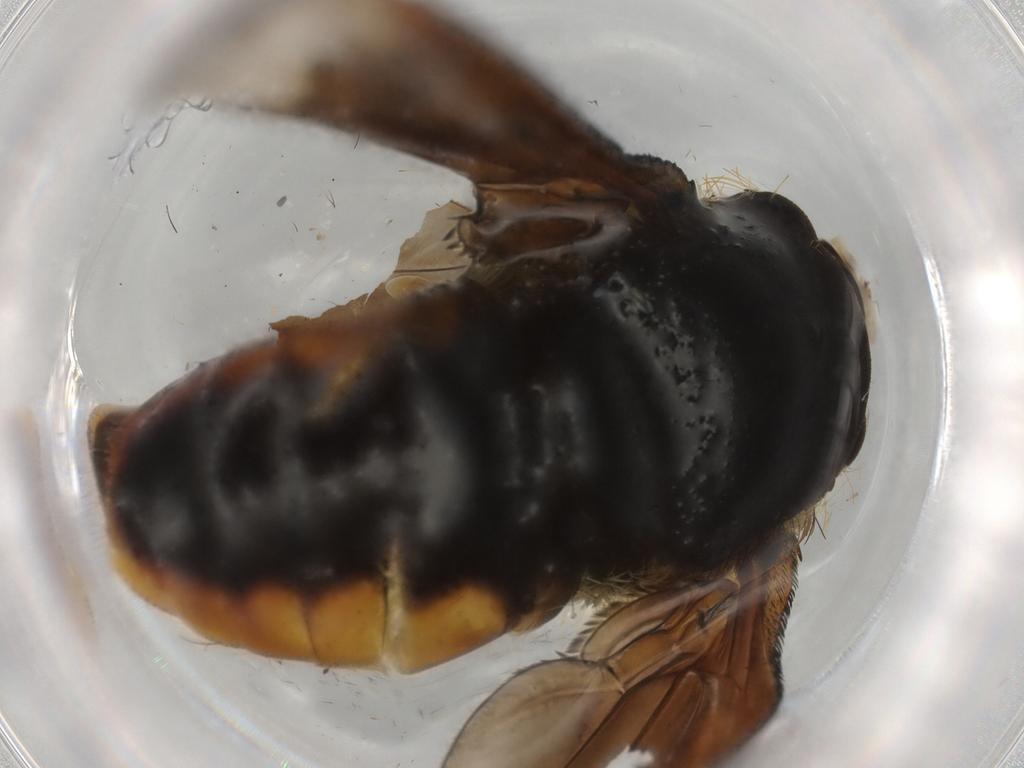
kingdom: Animalia
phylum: Arthropoda
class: Insecta
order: Diptera
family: Bombyliidae
